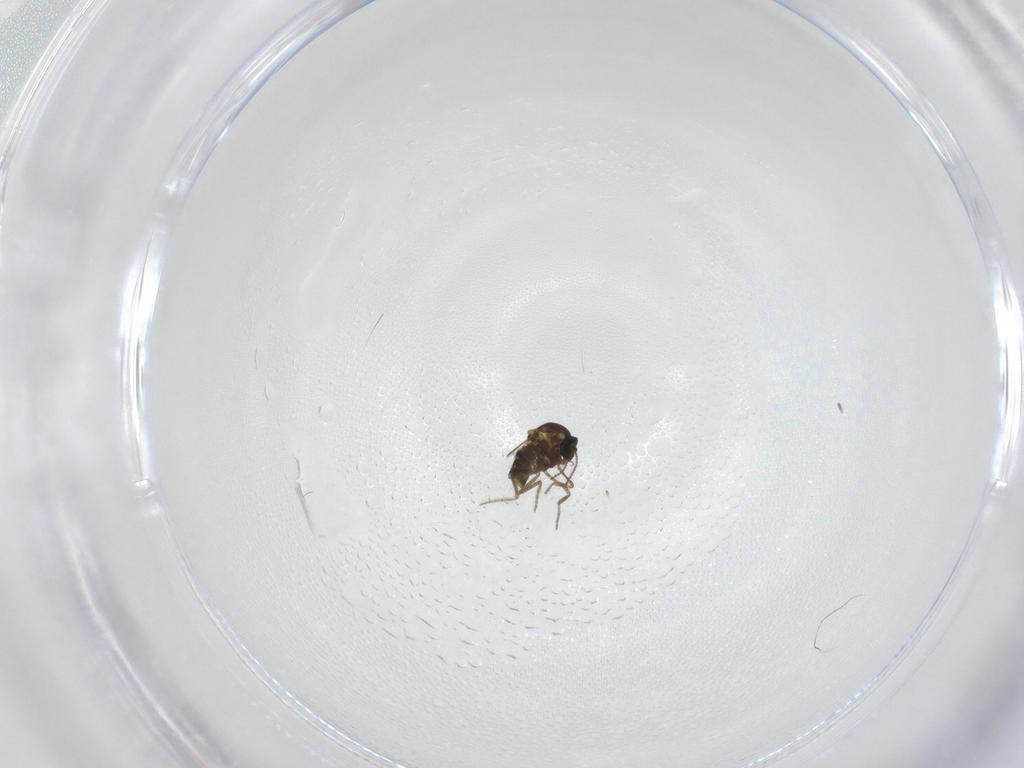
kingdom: Animalia
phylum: Arthropoda
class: Insecta
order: Diptera
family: Ceratopogonidae
